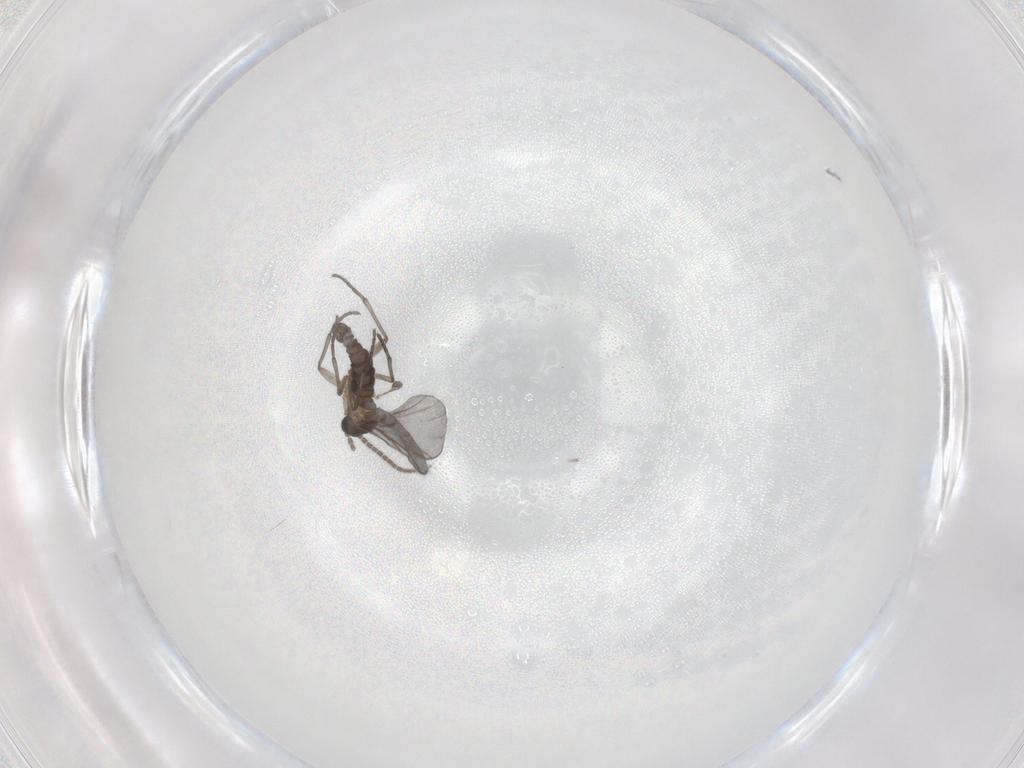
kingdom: Animalia
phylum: Arthropoda
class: Insecta
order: Diptera
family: Sciaridae
